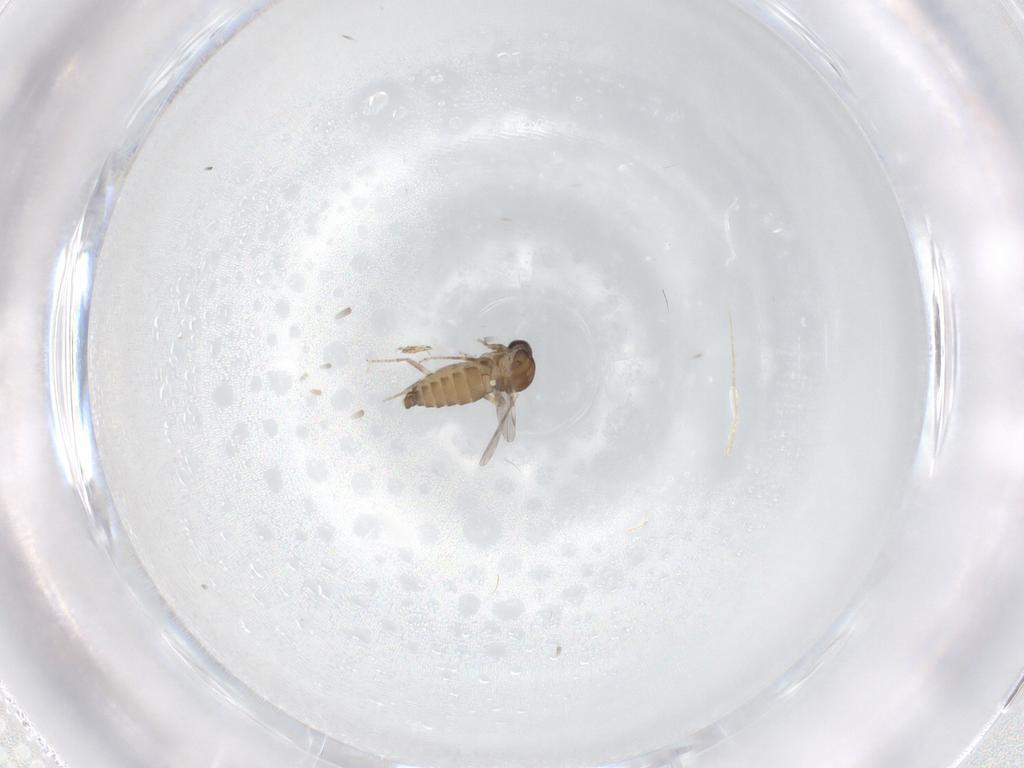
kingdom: Animalia
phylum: Arthropoda
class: Insecta
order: Diptera
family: Ceratopogonidae
